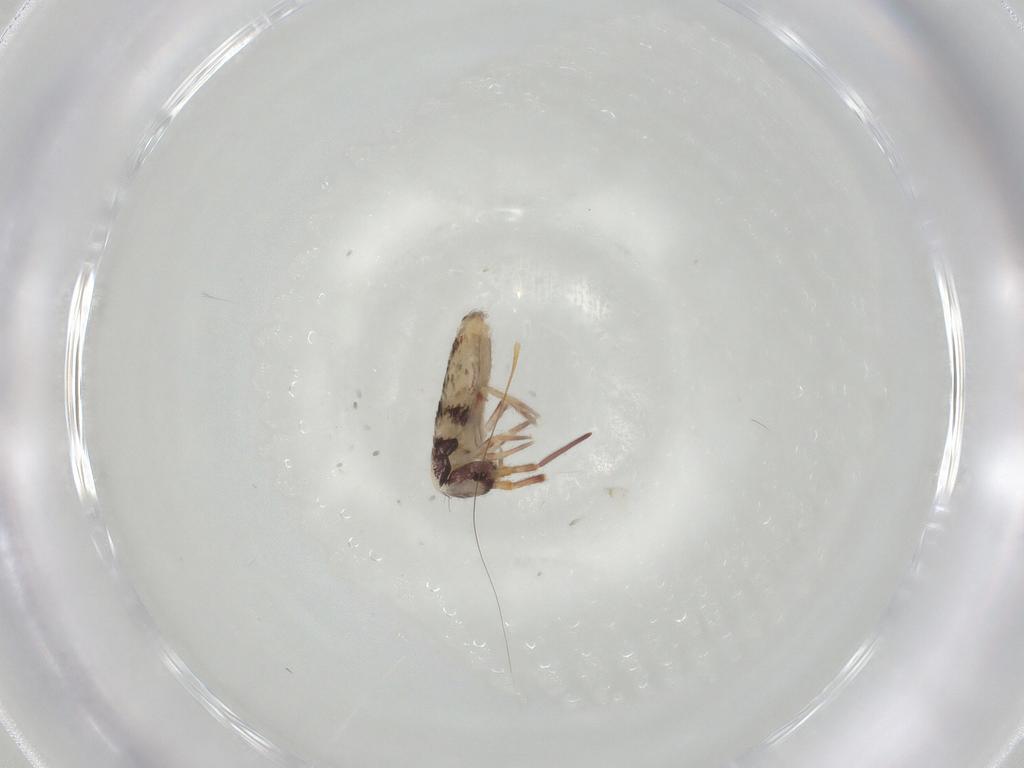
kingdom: Animalia
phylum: Arthropoda
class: Collembola
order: Entomobryomorpha
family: Entomobryidae
